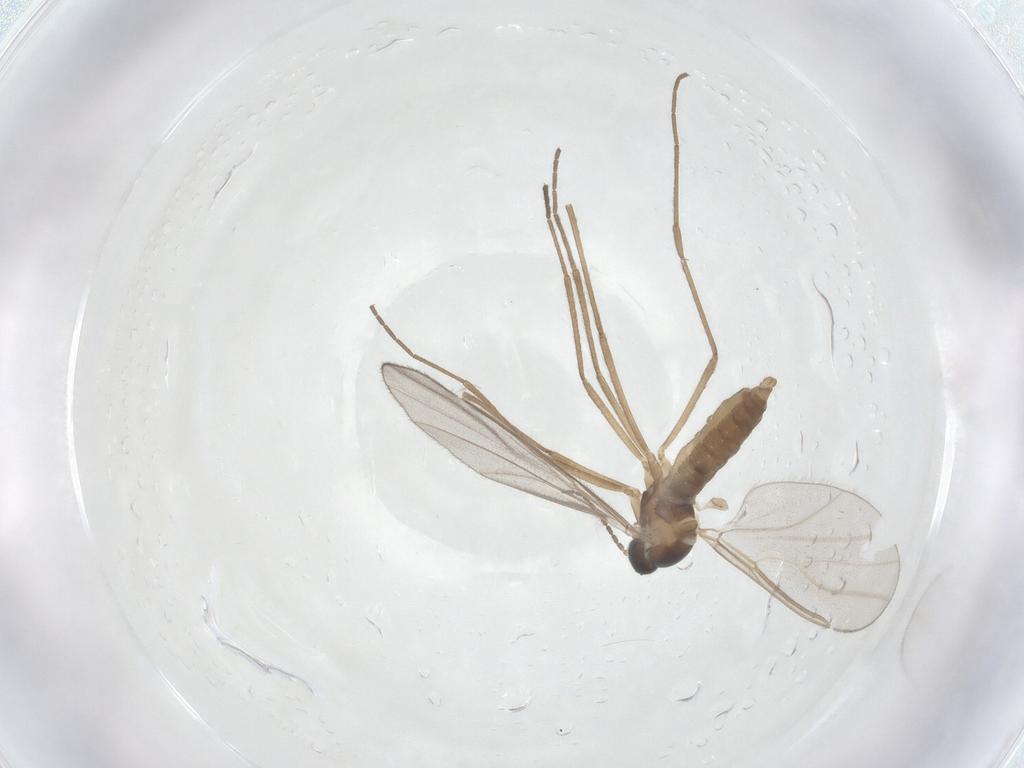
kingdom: Animalia
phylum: Arthropoda
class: Insecta
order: Diptera
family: Cecidomyiidae
